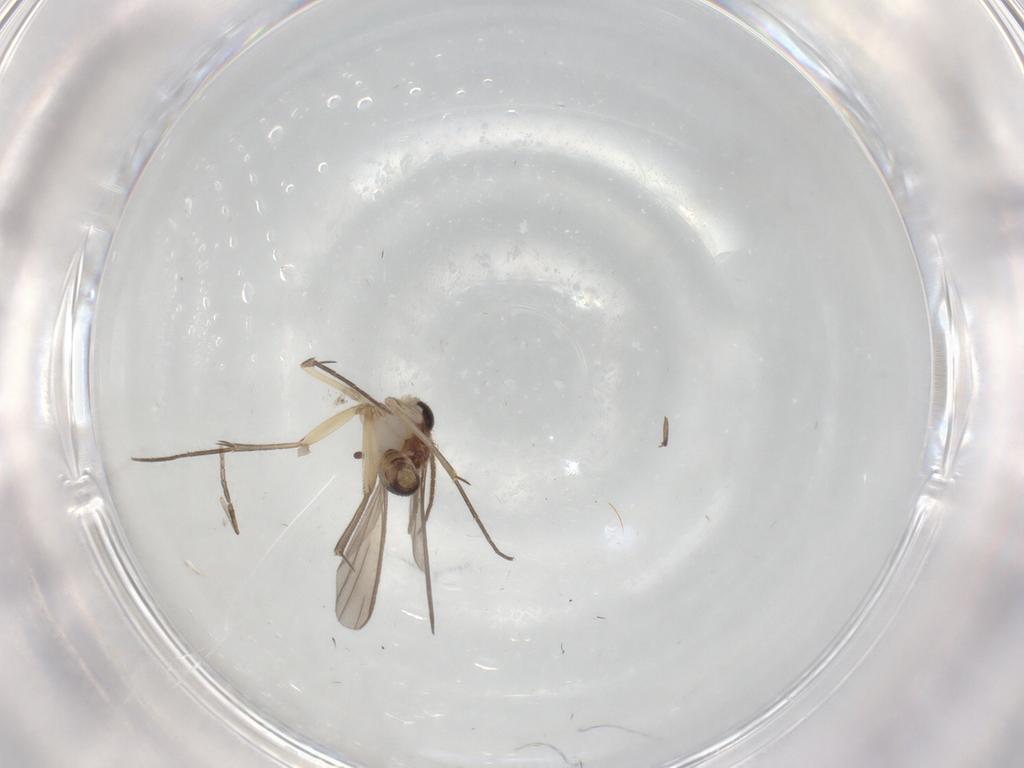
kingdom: Animalia
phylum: Arthropoda
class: Insecta
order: Diptera
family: Mycetophilidae
